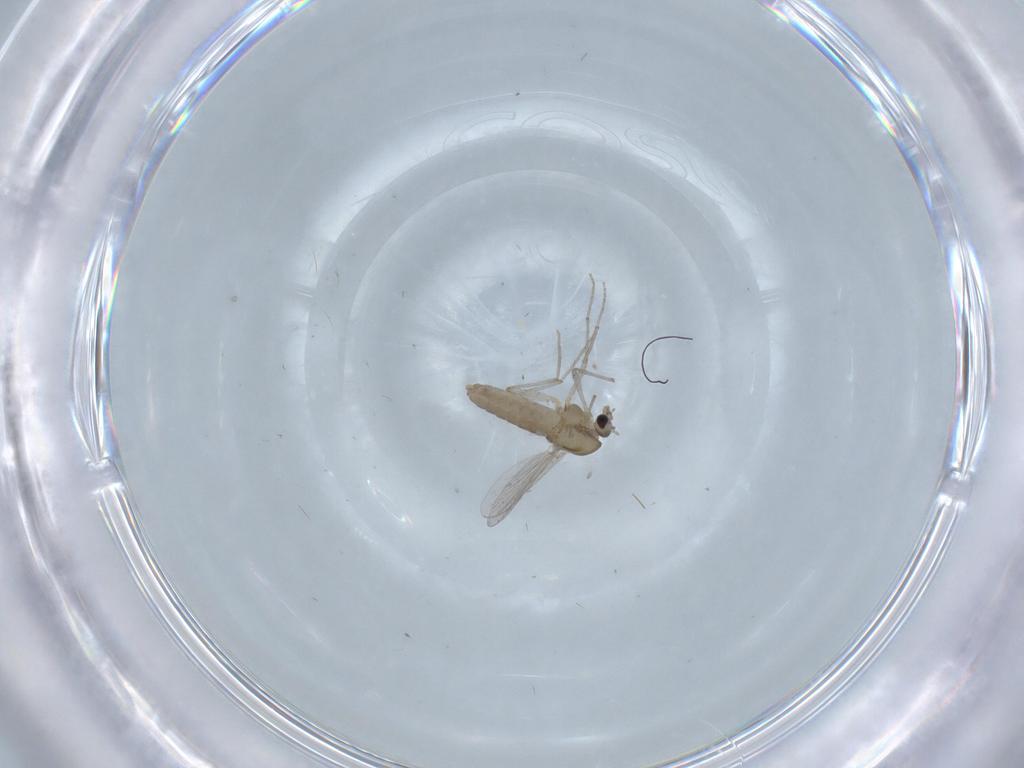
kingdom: Animalia
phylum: Arthropoda
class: Insecta
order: Diptera
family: Chironomidae
